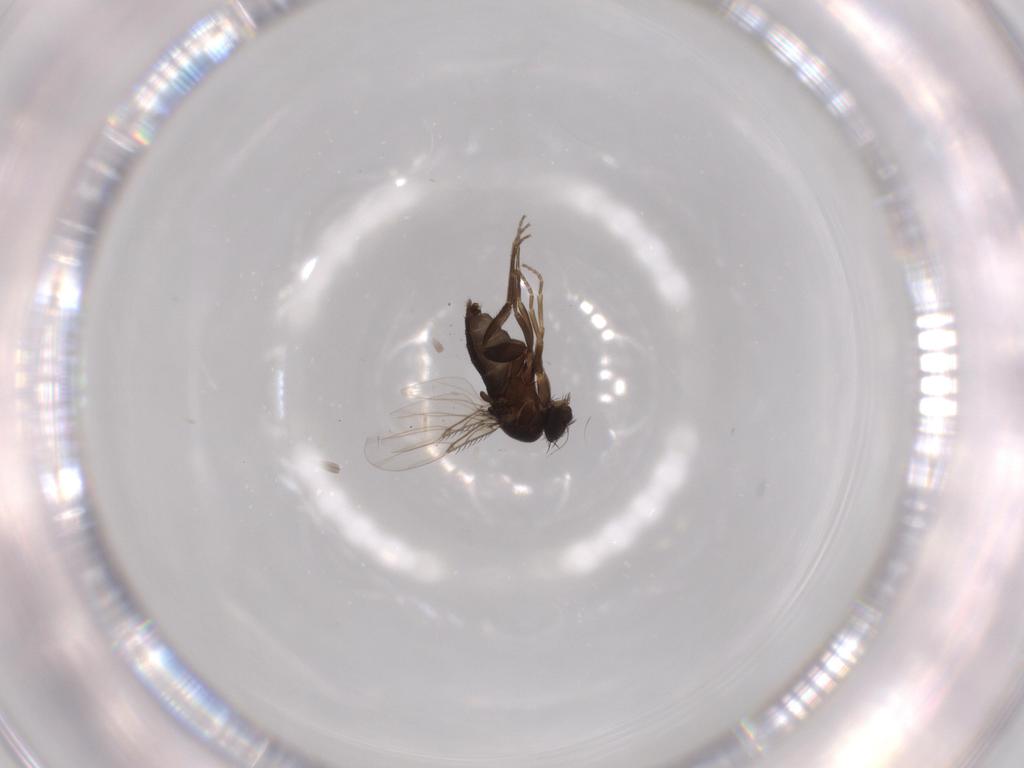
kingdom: Animalia
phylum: Arthropoda
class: Insecta
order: Diptera
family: Phoridae
